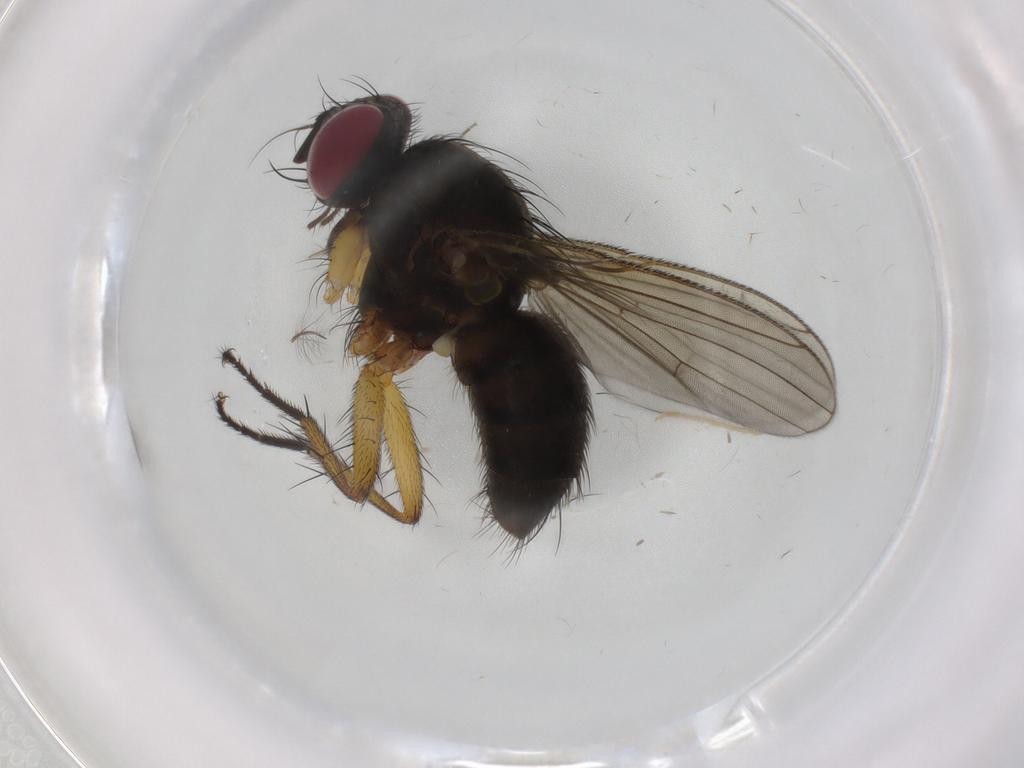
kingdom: Animalia
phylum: Arthropoda
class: Insecta
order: Diptera
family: Muscidae
